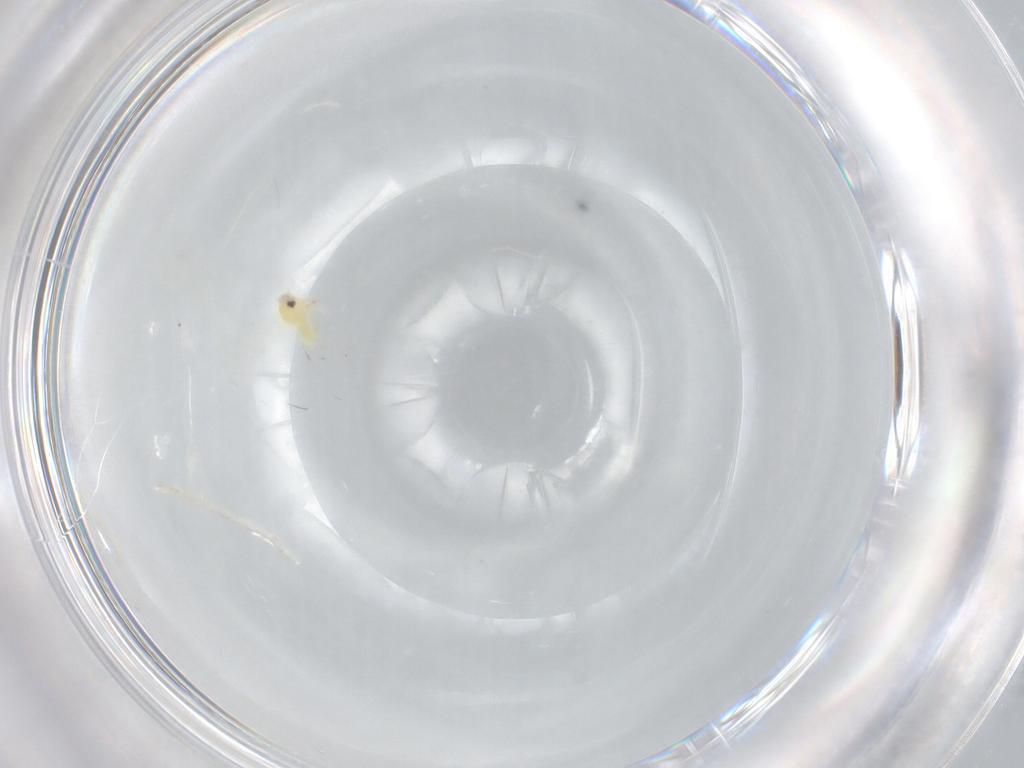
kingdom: Animalia
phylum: Arthropoda
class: Insecta
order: Hemiptera
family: Aleyrodidae
